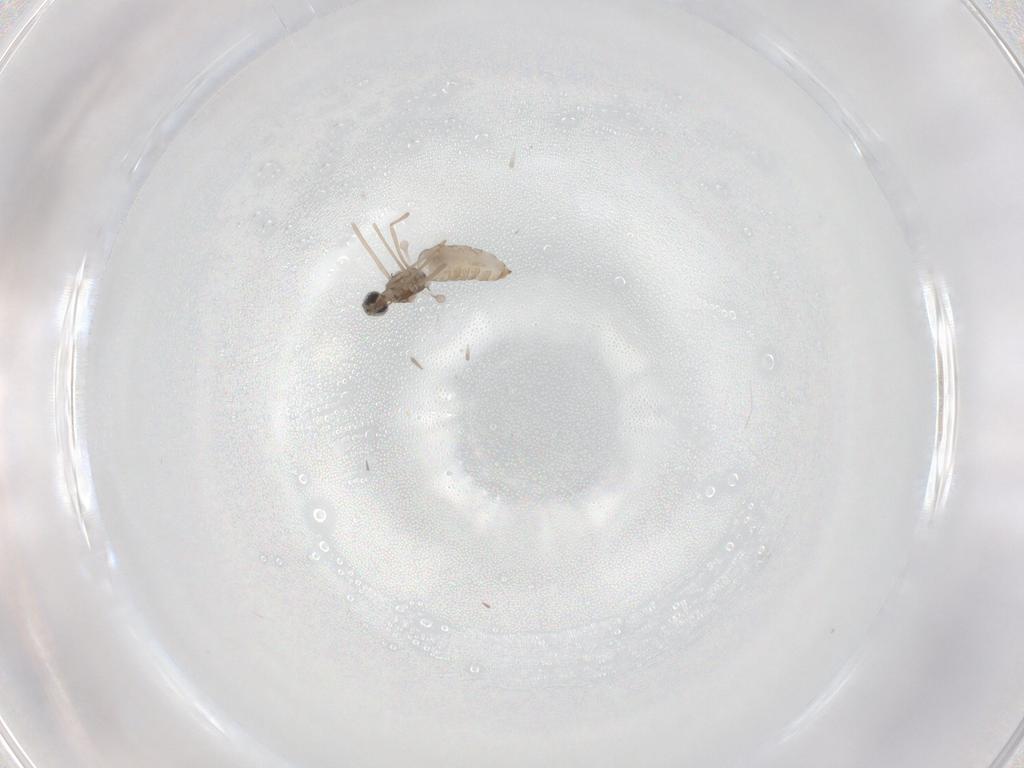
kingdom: Animalia
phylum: Arthropoda
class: Insecta
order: Diptera
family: Cecidomyiidae
